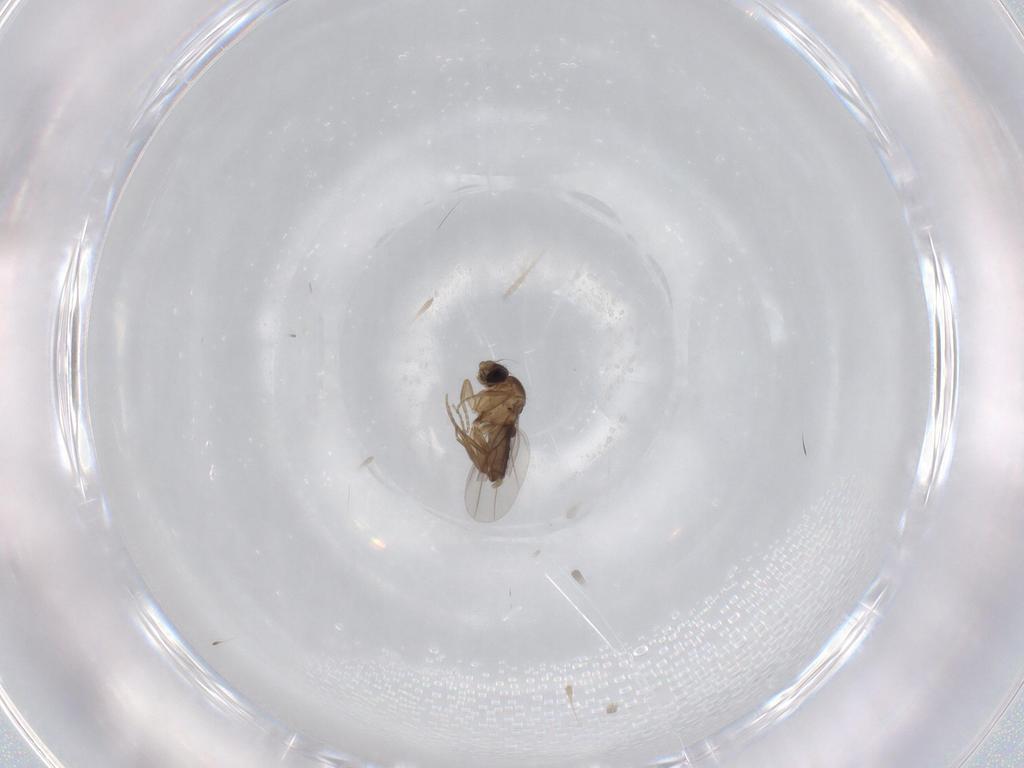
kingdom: Animalia
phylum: Arthropoda
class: Insecta
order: Diptera
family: Phoridae
